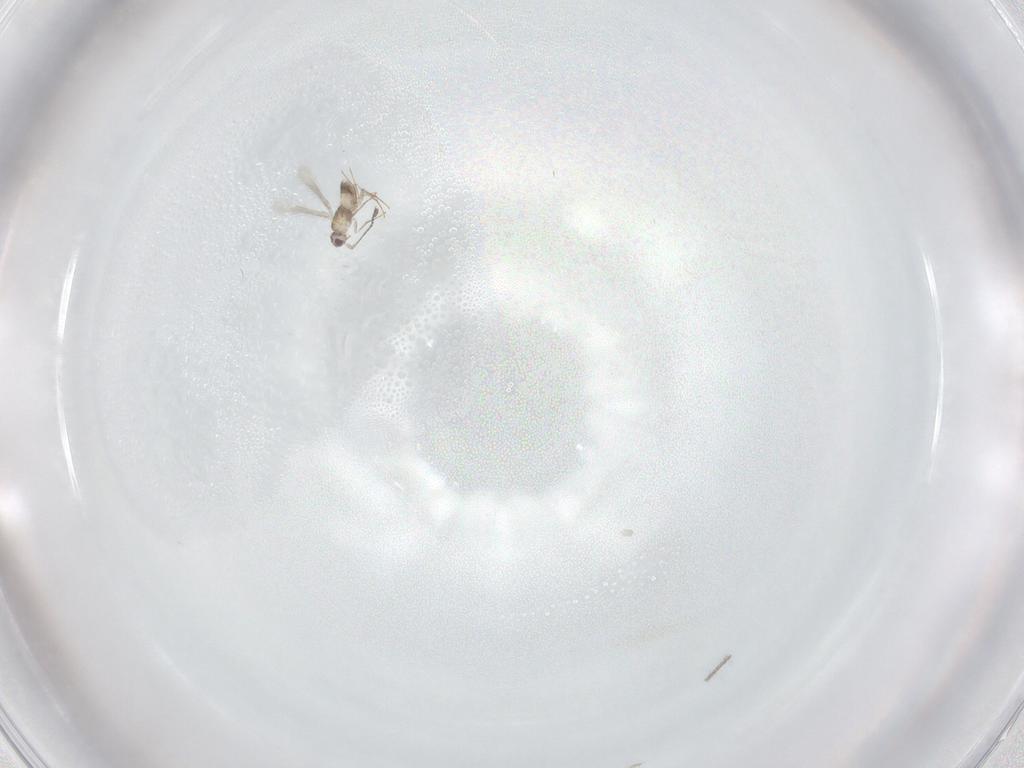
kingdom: Animalia
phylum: Arthropoda
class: Insecta
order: Hymenoptera
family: Mymaridae
